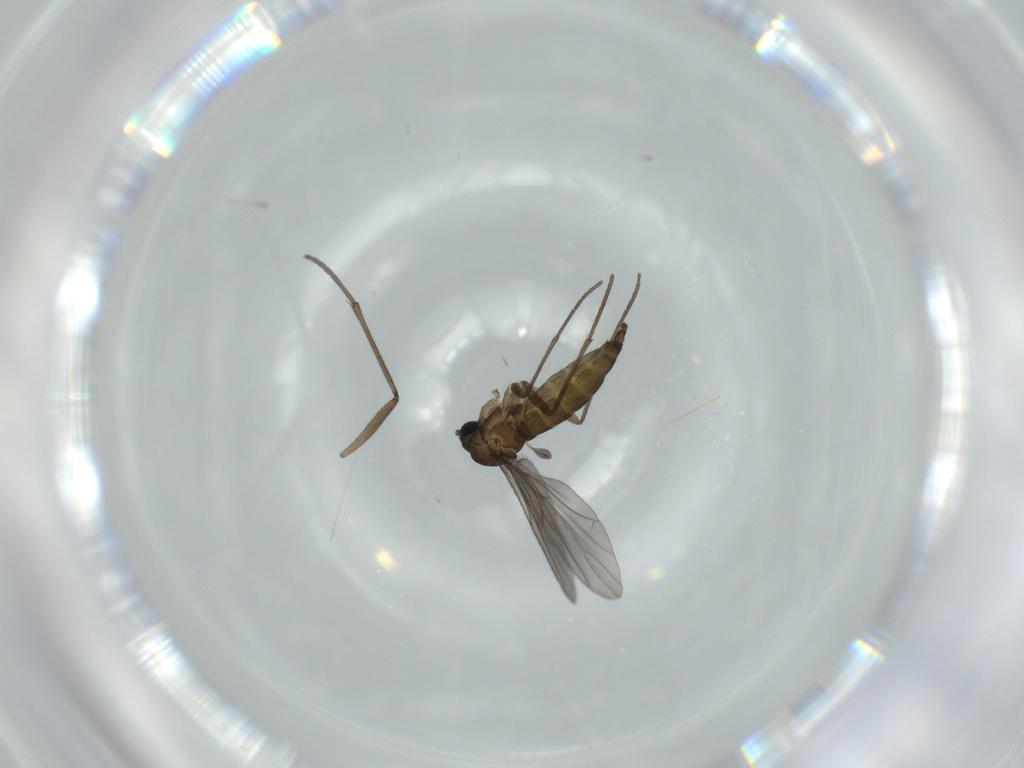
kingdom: Animalia
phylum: Arthropoda
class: Insecta
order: Diptera
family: Sciaridae
